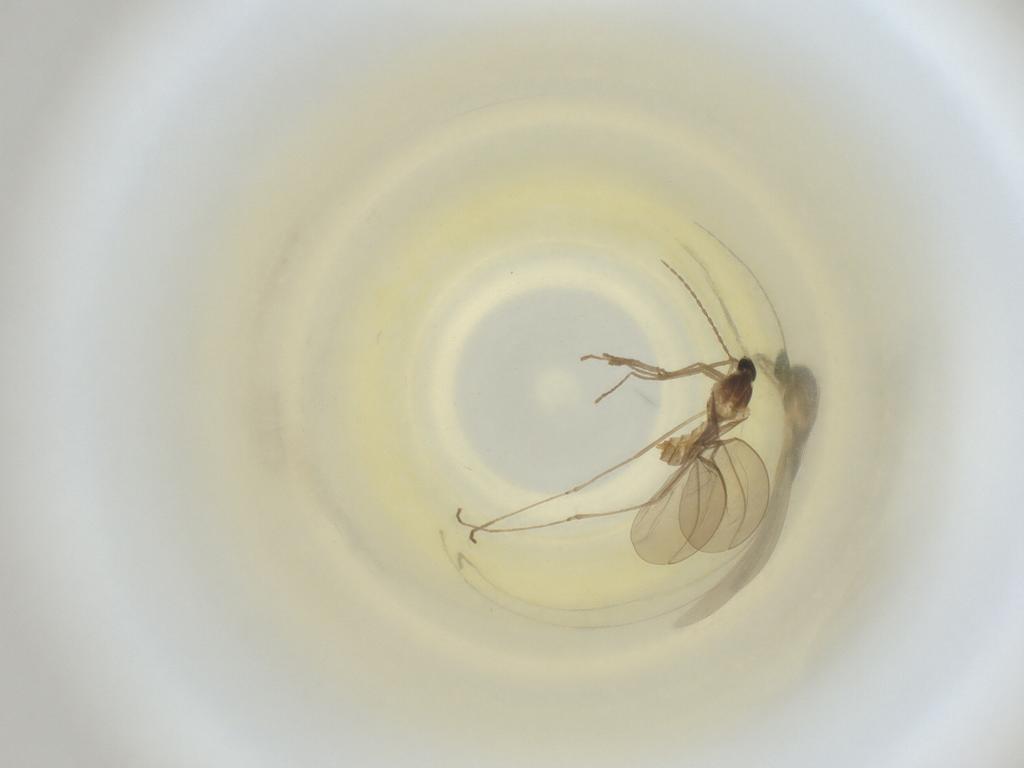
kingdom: Animalia
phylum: Arthropoda
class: Insecta
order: Diptera
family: Cecidomyiidae
